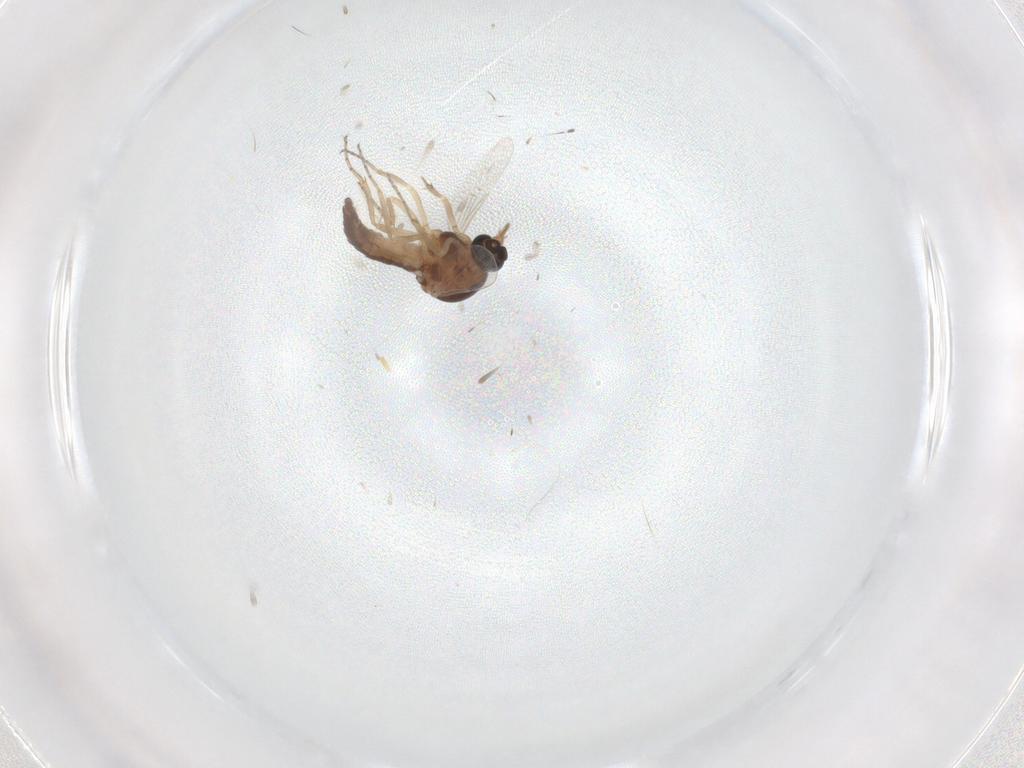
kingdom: Animalia
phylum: Arthropoda
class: Insecta
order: Diptera
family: Ceratopogonidae
